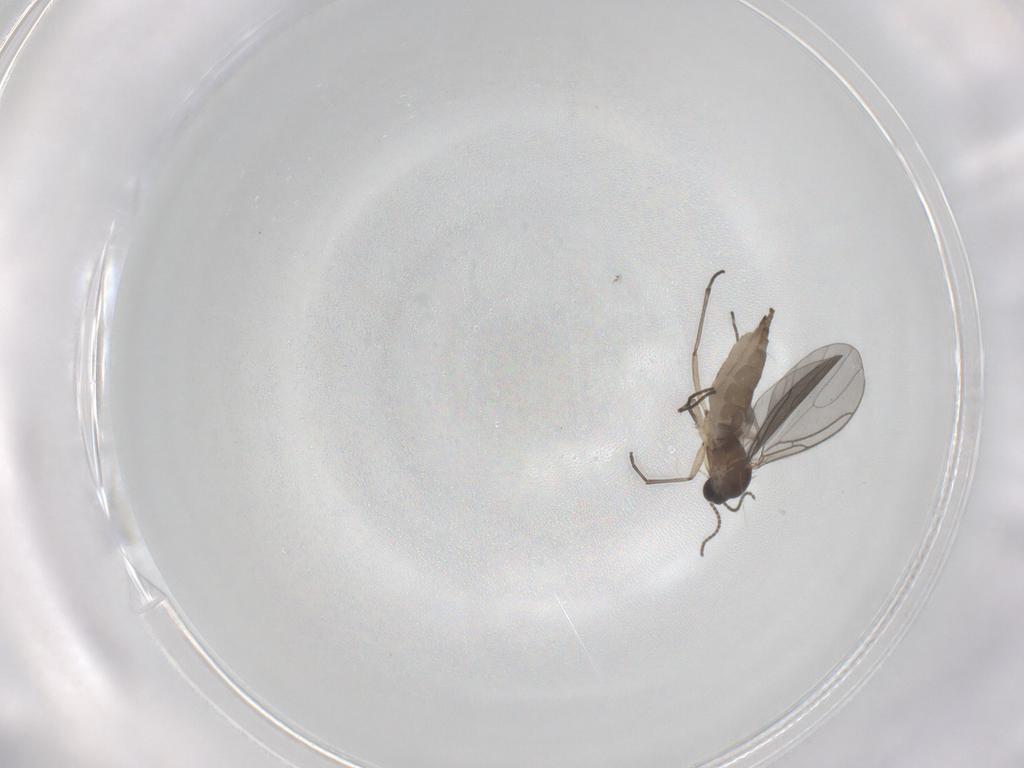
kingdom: Animalia
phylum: Arthropoda
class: Insecta
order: Diptera
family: Sciaridae
